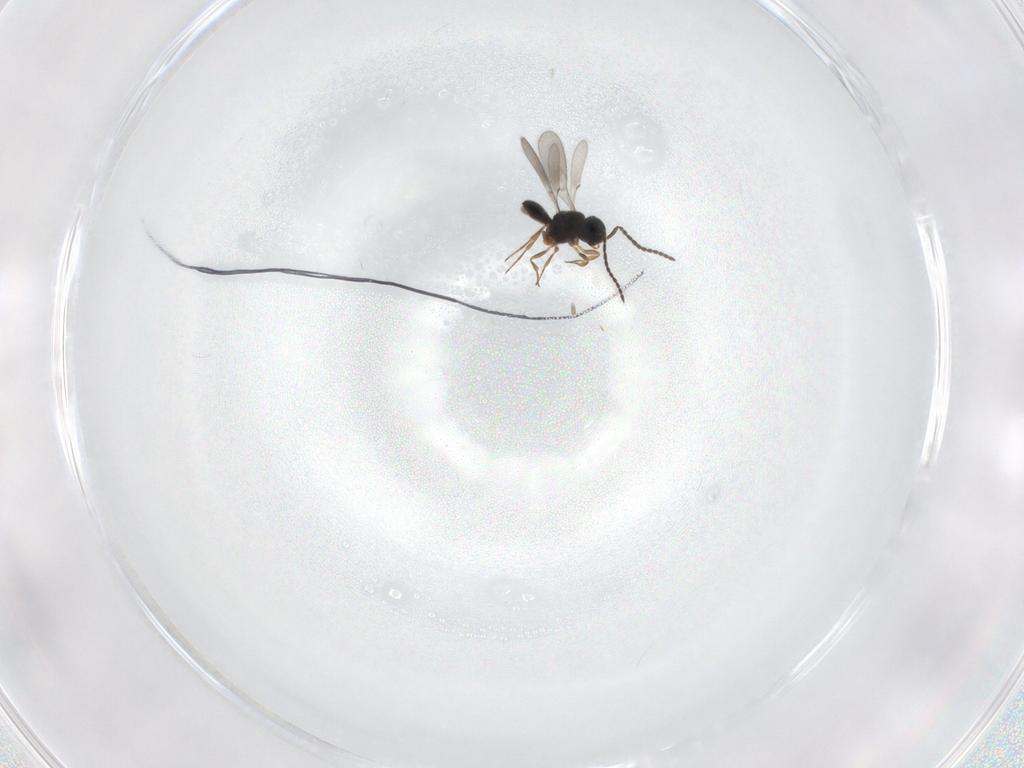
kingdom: Animalia
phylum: Arthropoda
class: Insecta
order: Hymenoptera
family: Scelionidae
